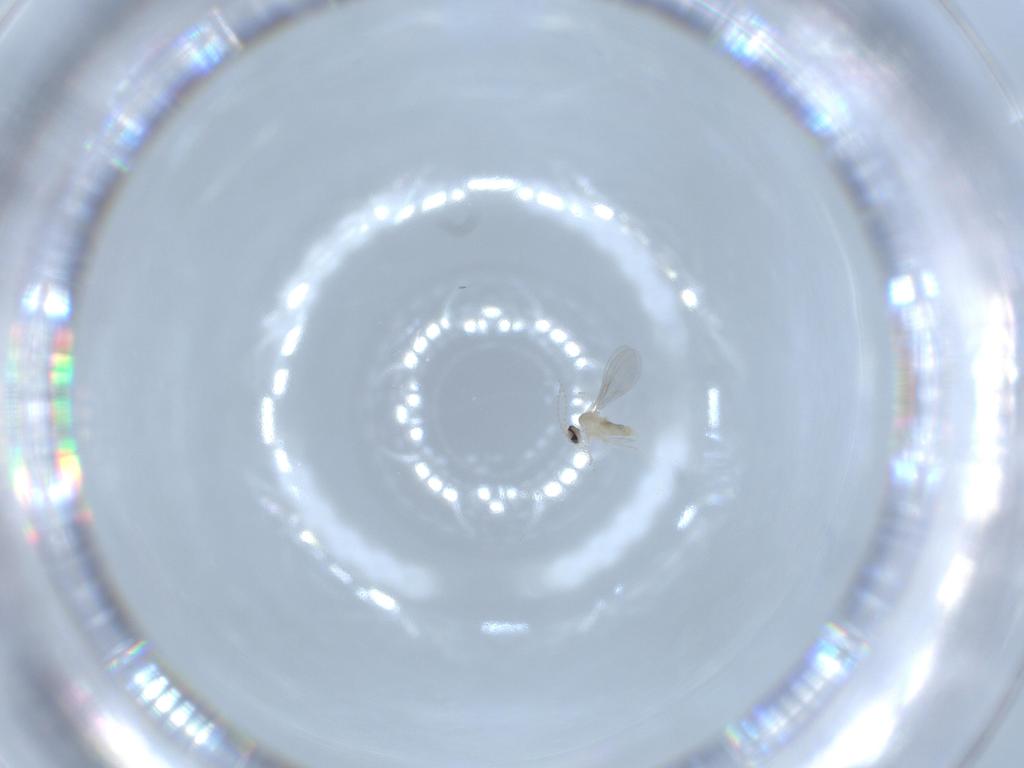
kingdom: Animalia
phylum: Arthropoda
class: Insecta
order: Diptera
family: Cecidomyiidae
